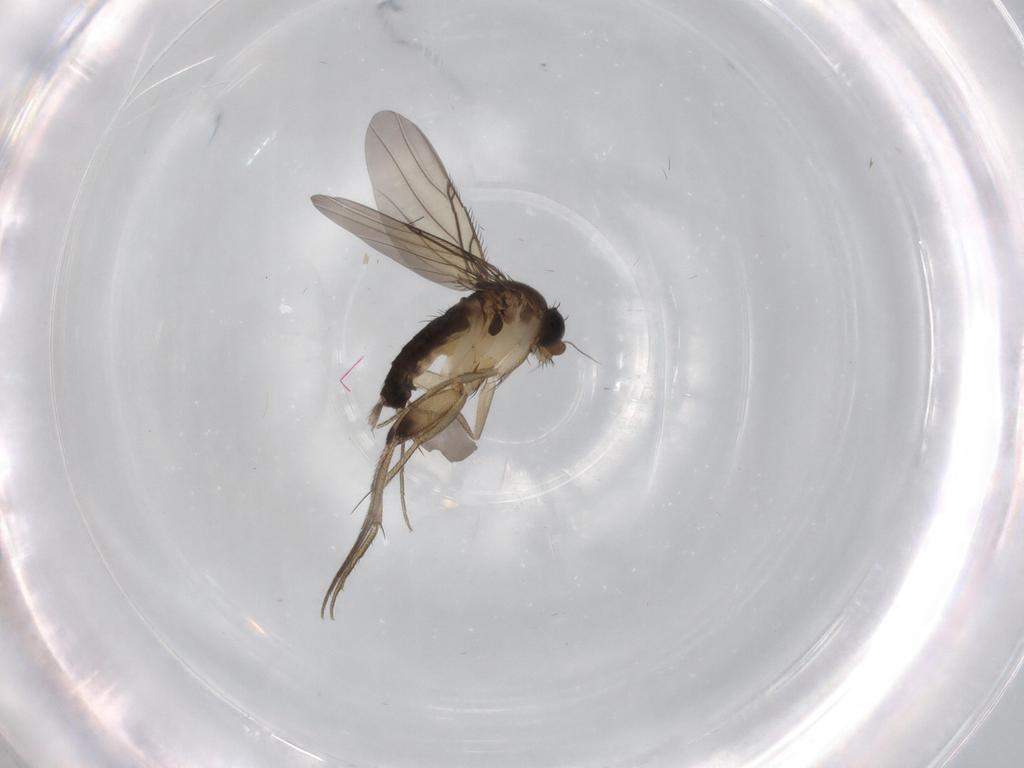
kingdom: Animalia
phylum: Arthropoda
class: Insecta
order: Diptera
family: Phoridae
